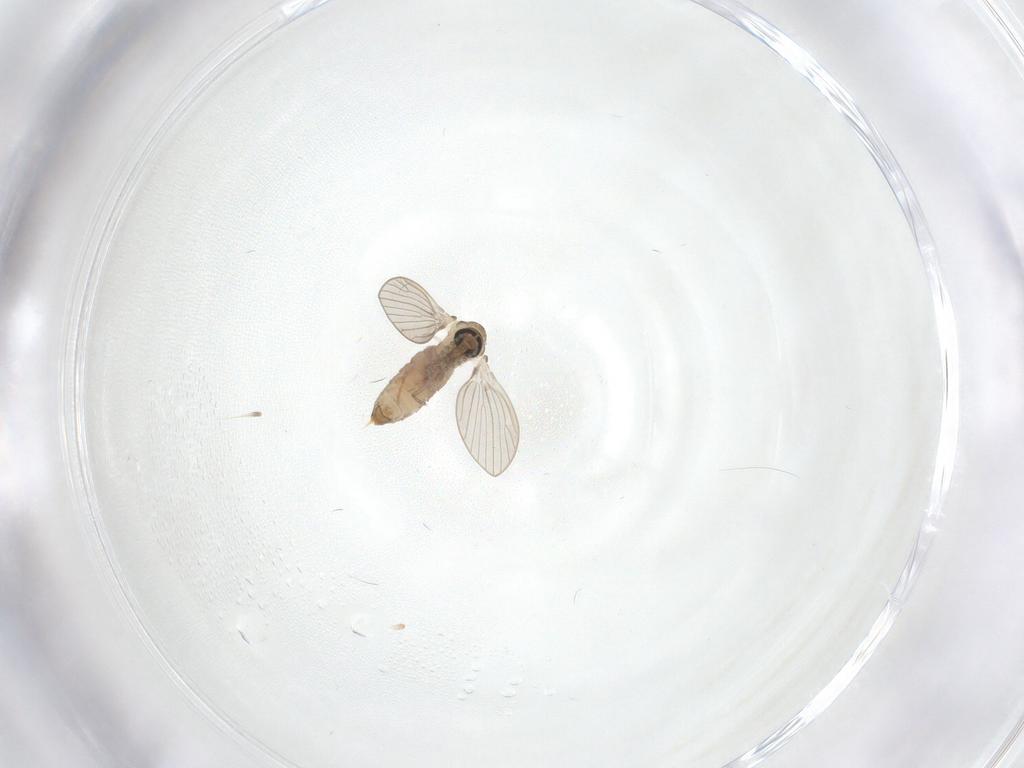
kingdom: Animalia
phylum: Arthropoda
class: Insecta
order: Diptera
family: Psychodidae
